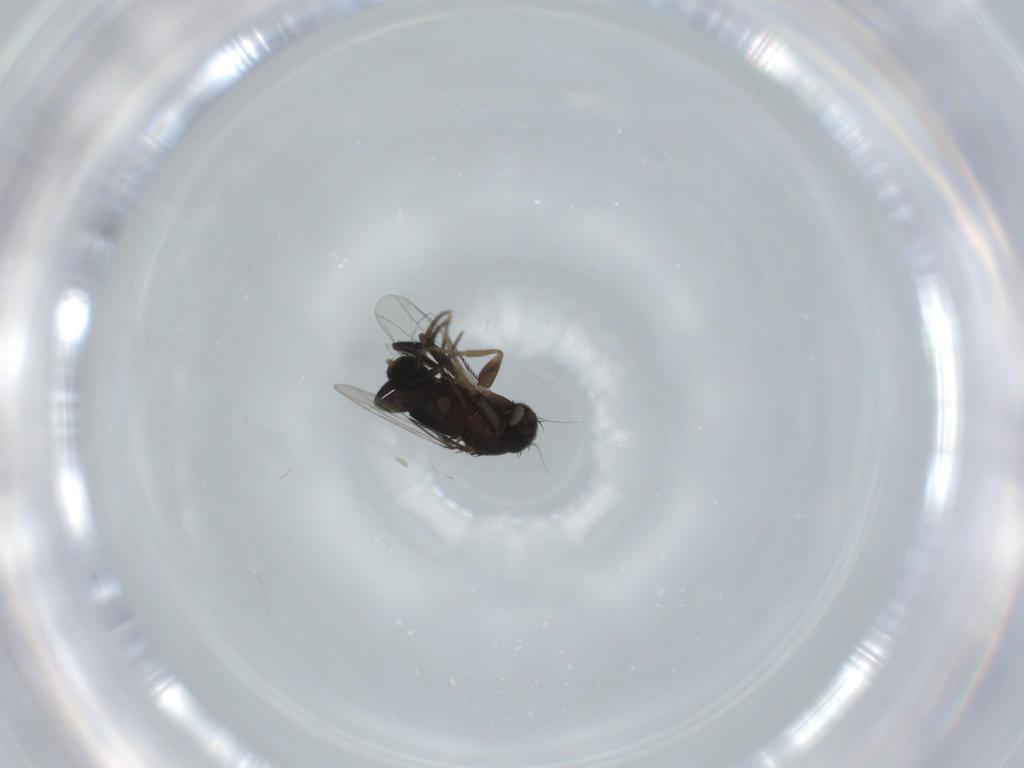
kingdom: Animalia
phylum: Arthropoda
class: Insecta
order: Diptera
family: Phoridae
